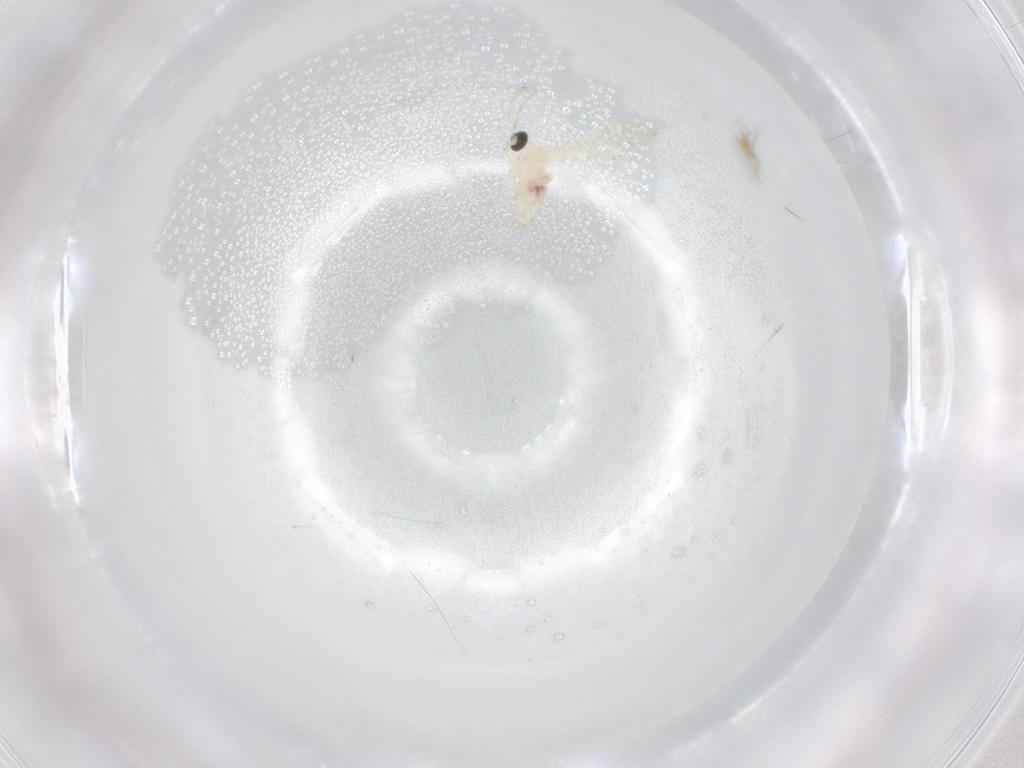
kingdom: Animalia
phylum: Arthropoda
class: Insecta
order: Diptera
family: Cecidomyiidae
